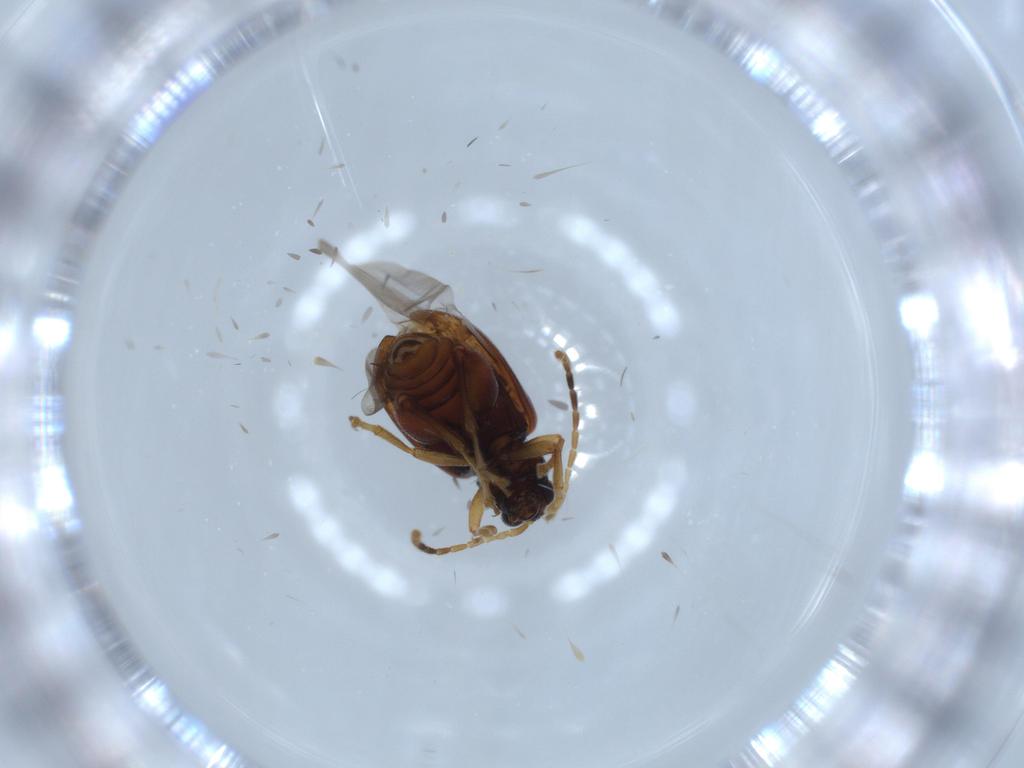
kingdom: Animalia
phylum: Arthropoda
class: Insecta
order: Coleoptera
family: Chrysomelidae
